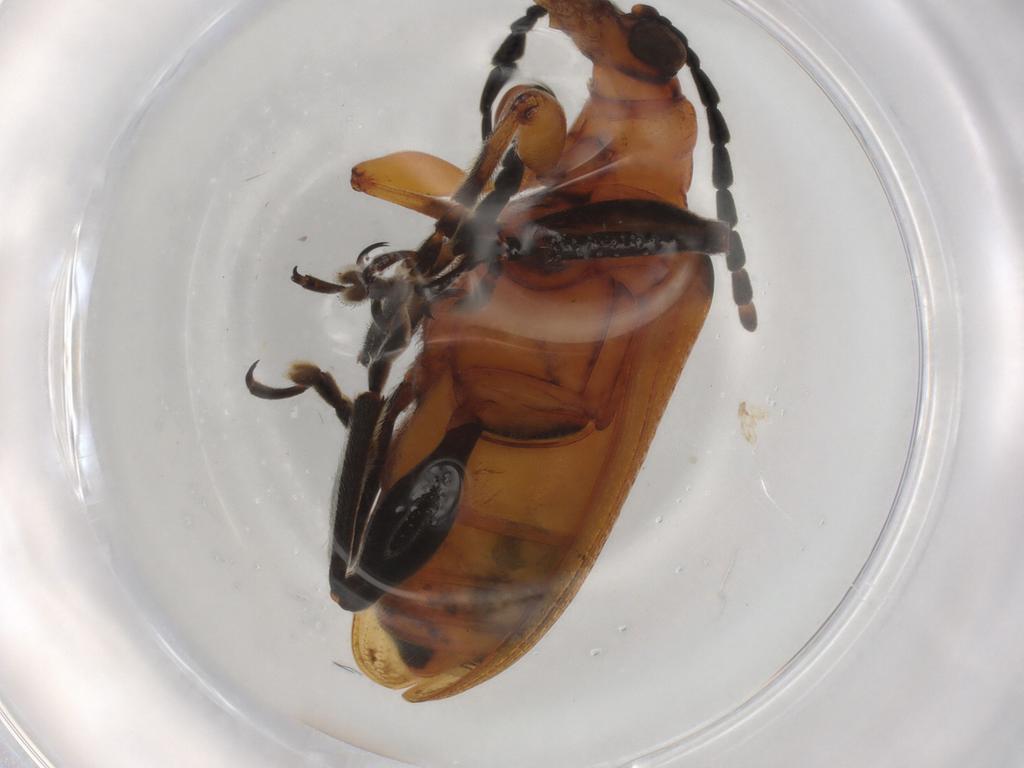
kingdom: Animalia
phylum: Arthropoda
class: Insecta
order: Coleoptera
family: Chrysomelidae
